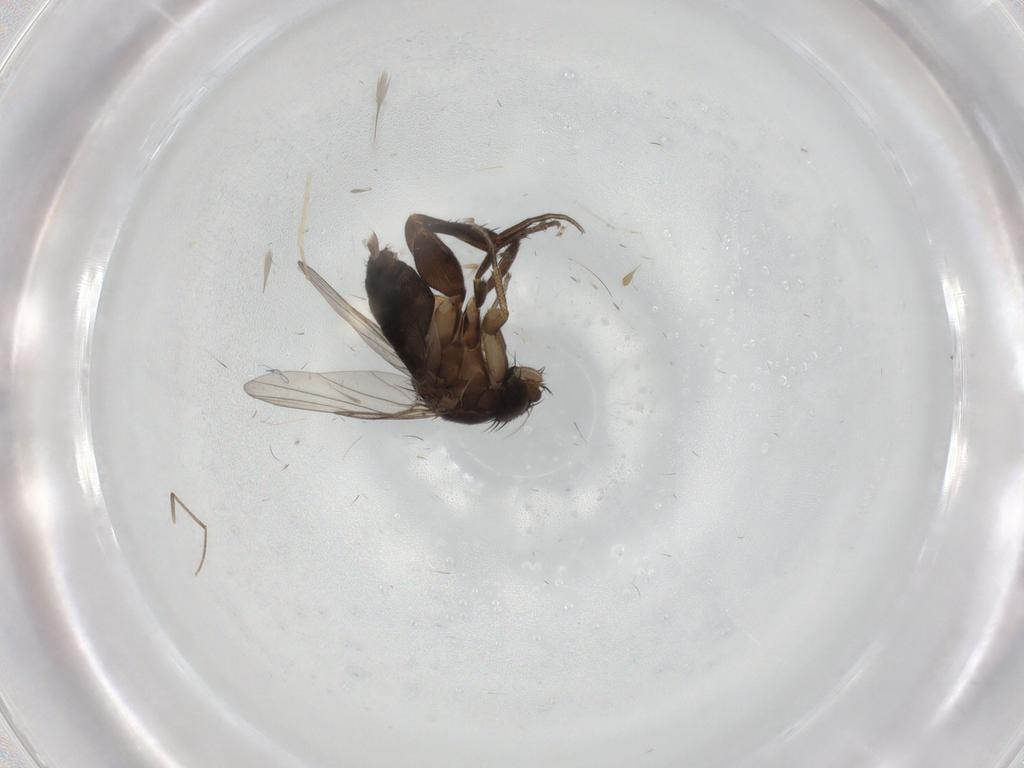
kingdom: Animalia
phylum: Arthropoda
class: Insecta
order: Diptera
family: Phoridae
